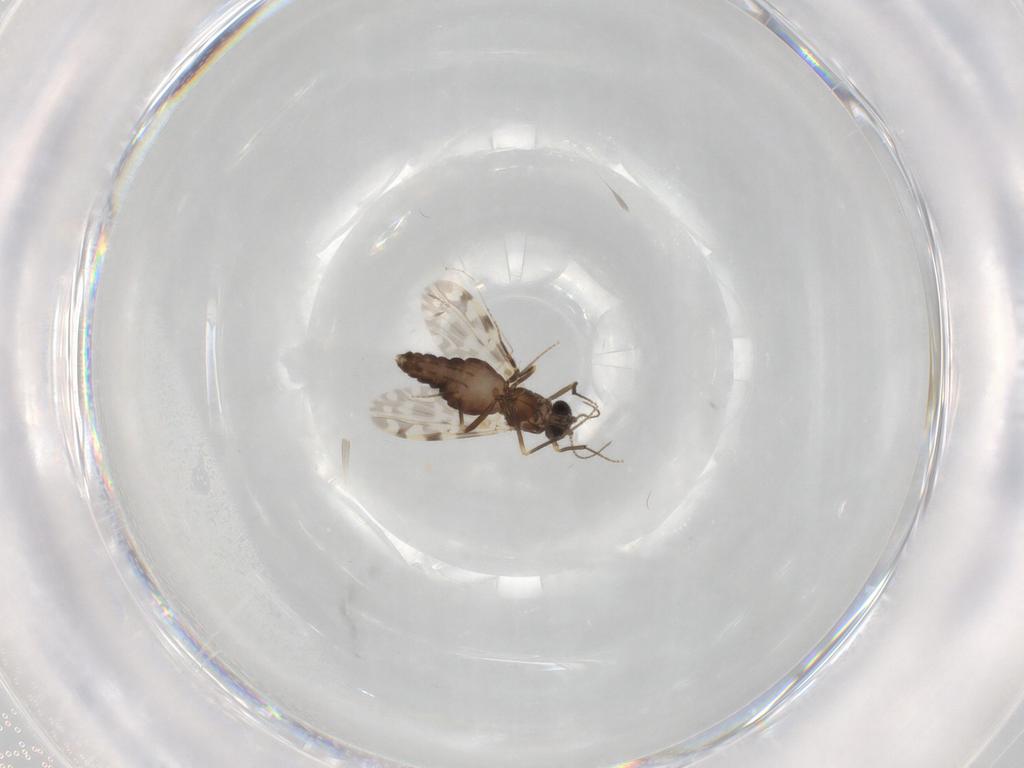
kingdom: Animalia
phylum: Arthropoda
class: Insecta
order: Diptera
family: Ceratopogonidae
